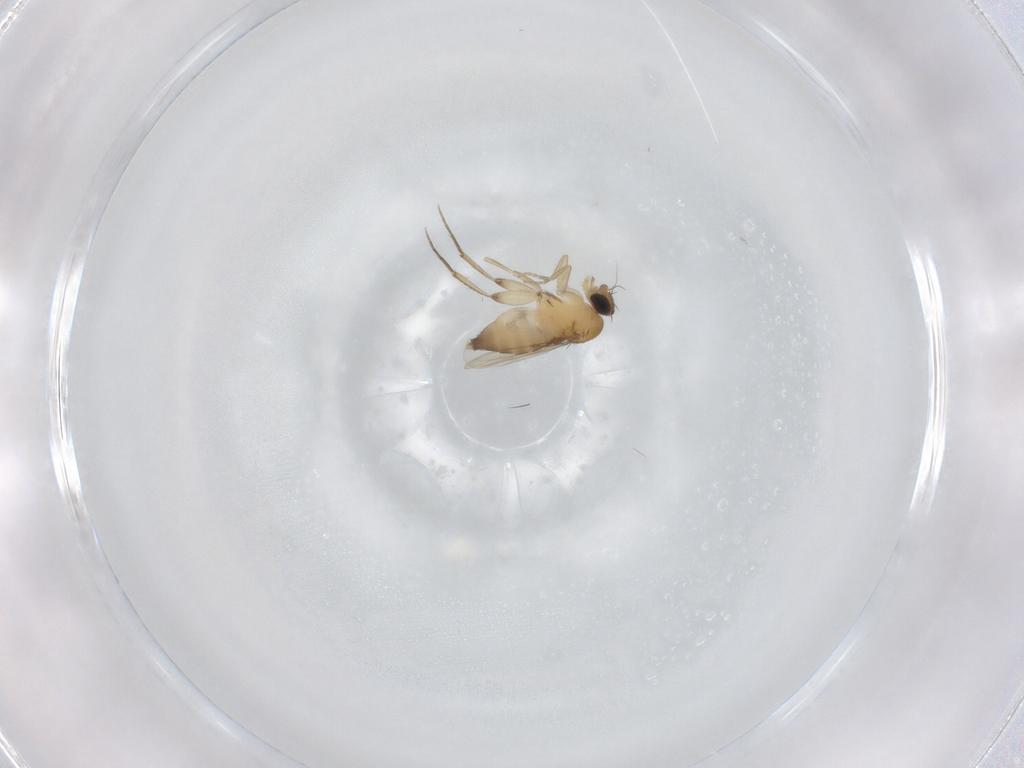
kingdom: Animalia
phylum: Arthropoda
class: Insecta
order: Diptera
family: Phoridae
